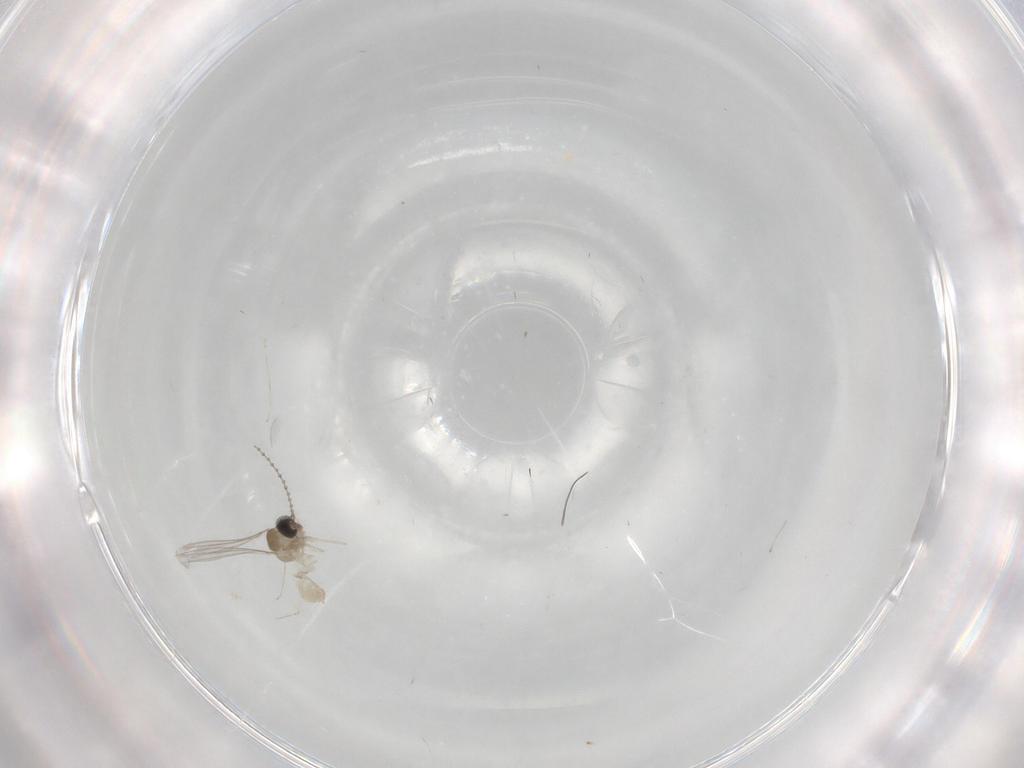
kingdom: Animalia
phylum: Arthropoda
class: Insecta
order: Diptera
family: Cecidomyiidae
